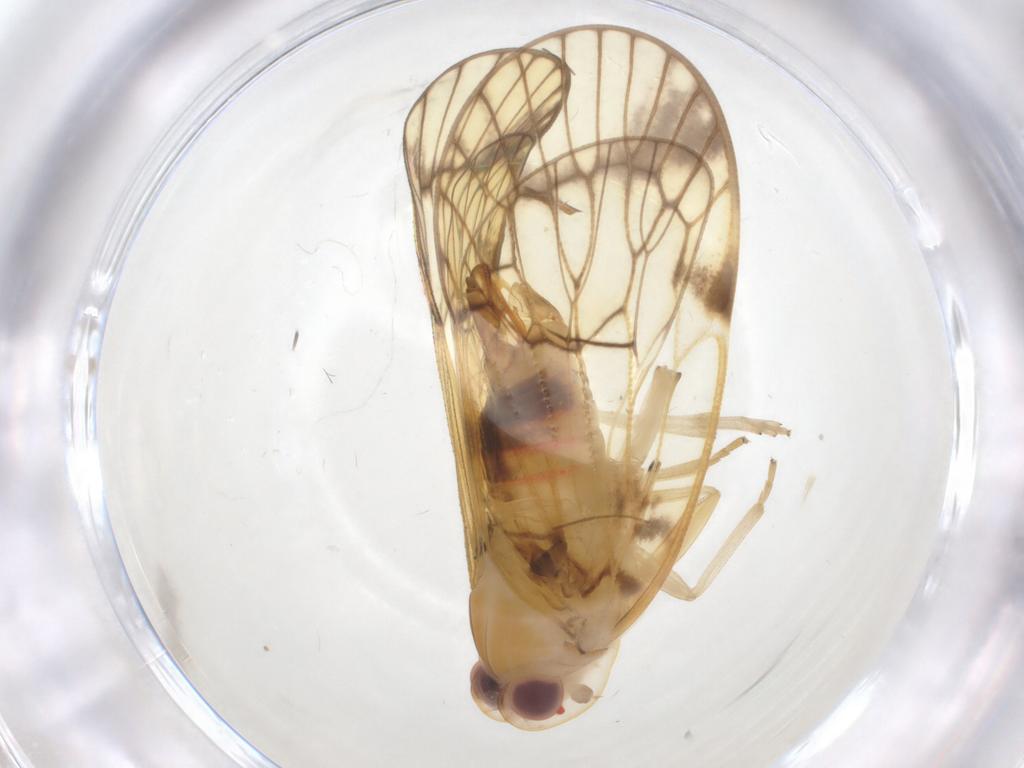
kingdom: Animalia
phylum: Arthropoda
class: Insecta
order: Hemiptera
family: Cixiidae
